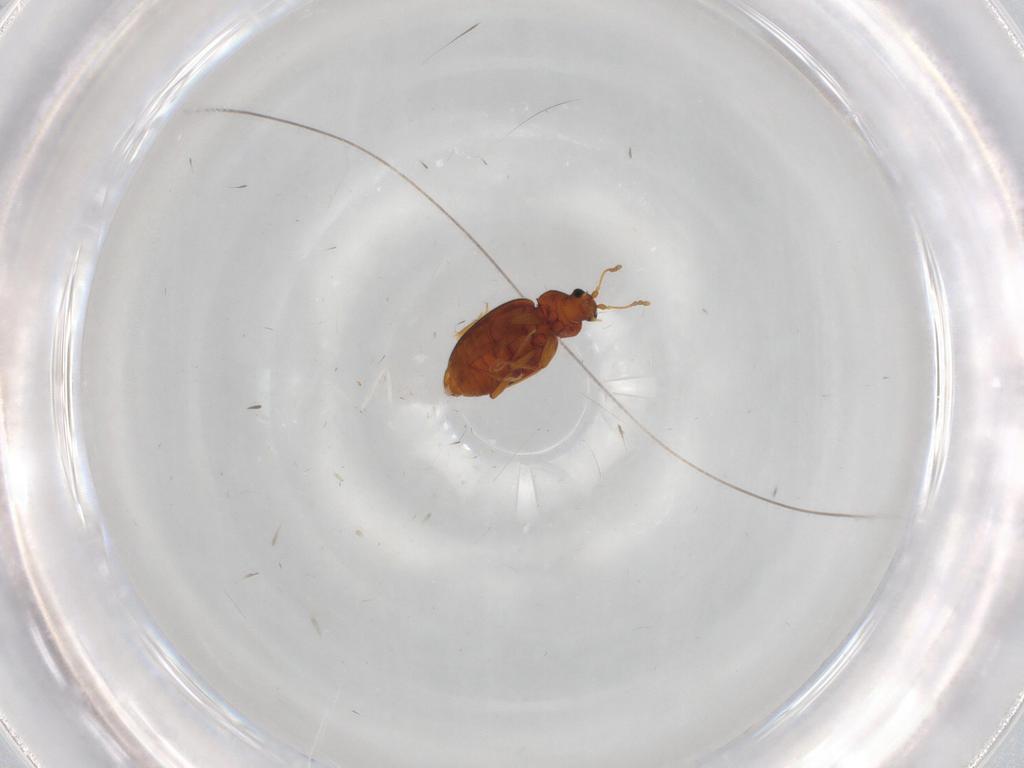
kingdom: Animalia
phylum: Arthropoda
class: Insecta
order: Coleoptera
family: Latridiidae
